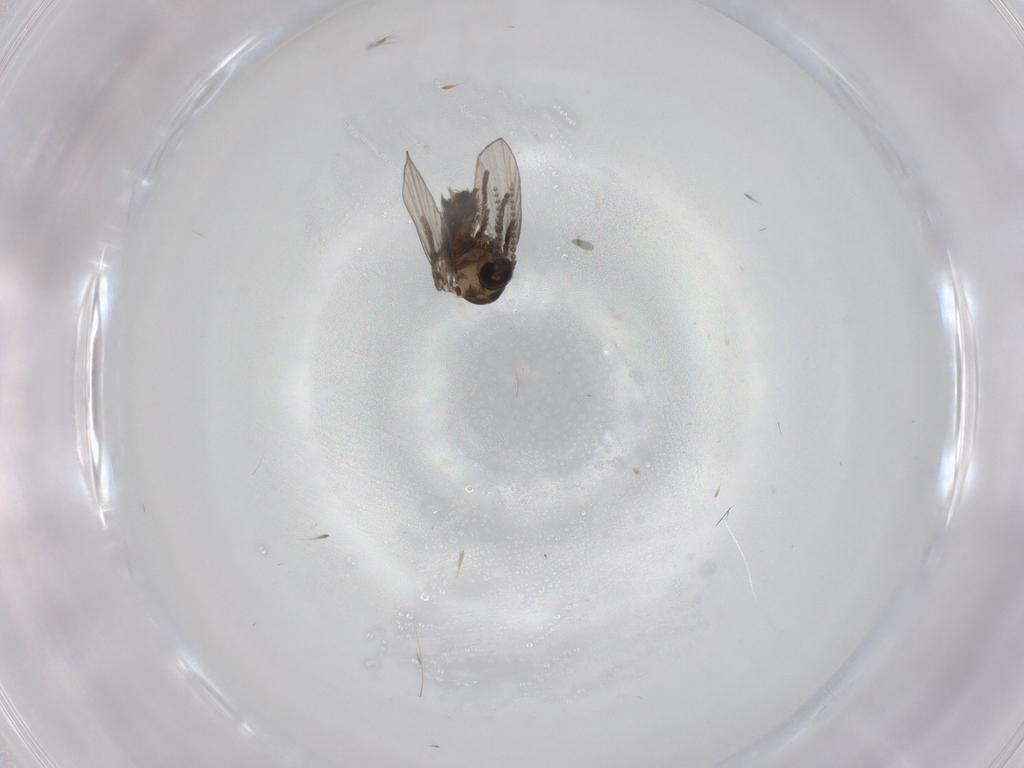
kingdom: Animalia
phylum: Arthropoda
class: Insecta
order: Diptera
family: Psychodidae
